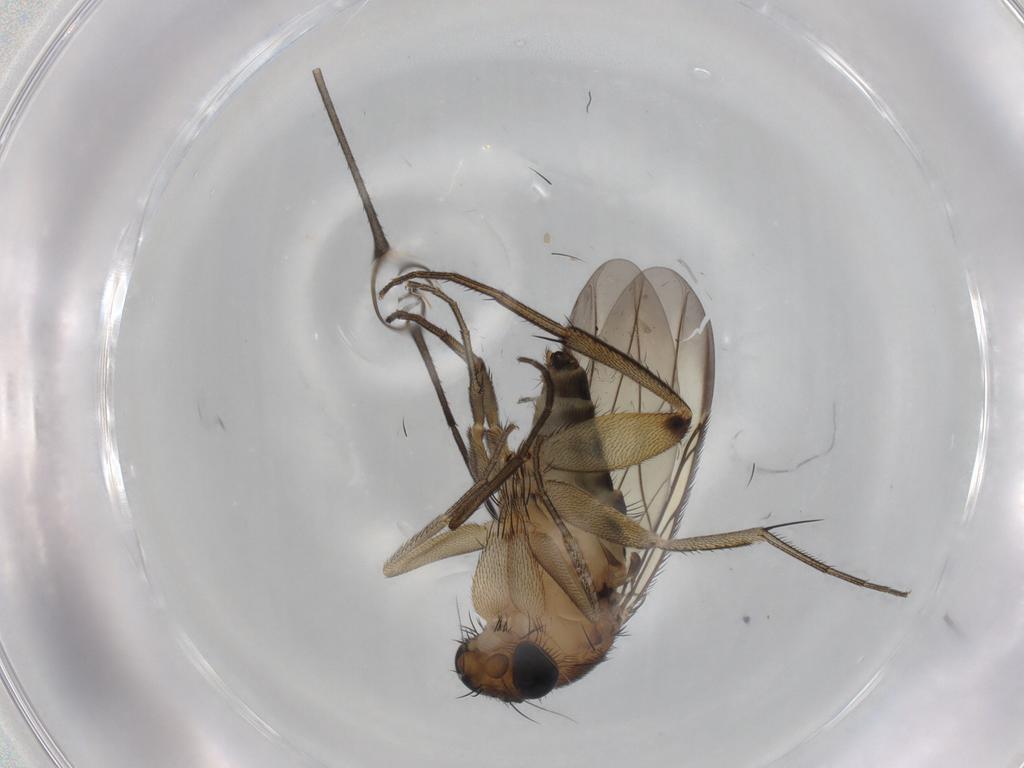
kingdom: Animalia
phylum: Arthropoda
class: Insecta
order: Diptera
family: Mycetophilidae
